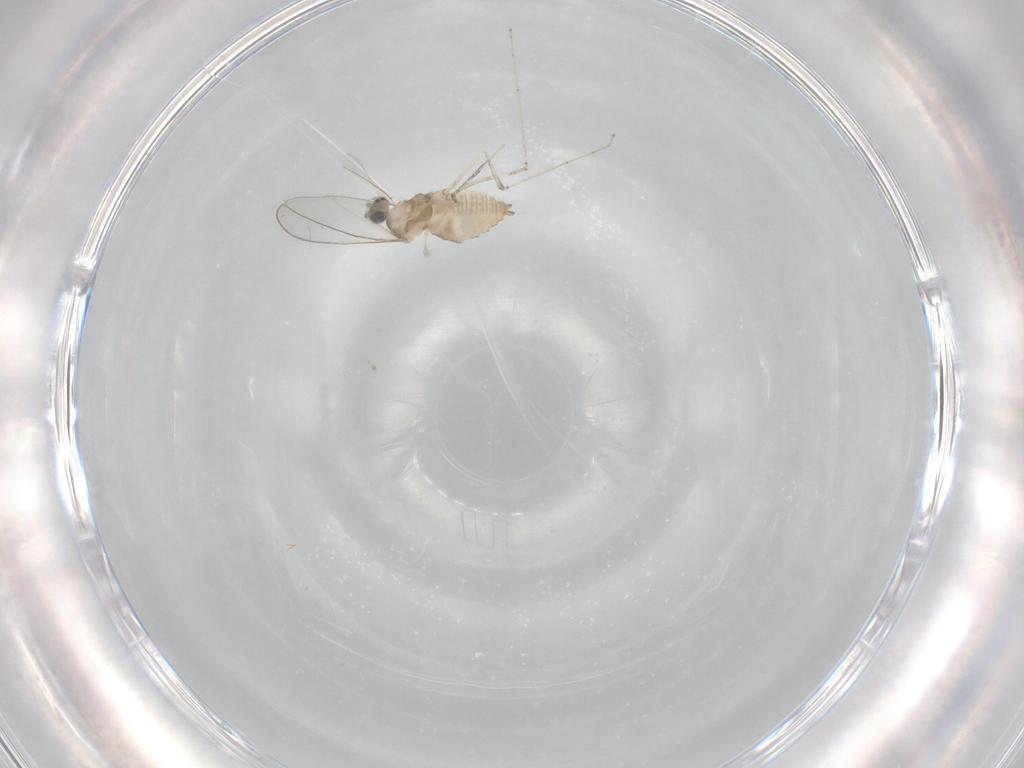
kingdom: Animalia
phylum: Arthropoda
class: Insecta
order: Diptera
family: Cecidomyiidae
